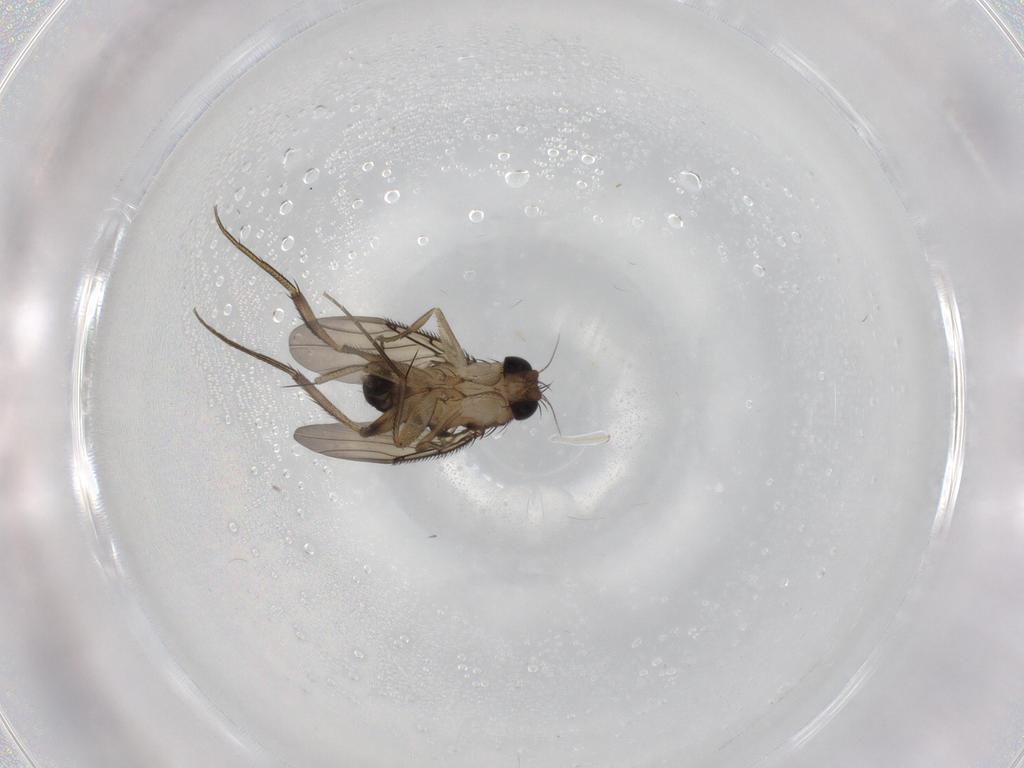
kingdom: Animalia
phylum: Arthropoda
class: Insecta
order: Diptera
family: Phoridae
